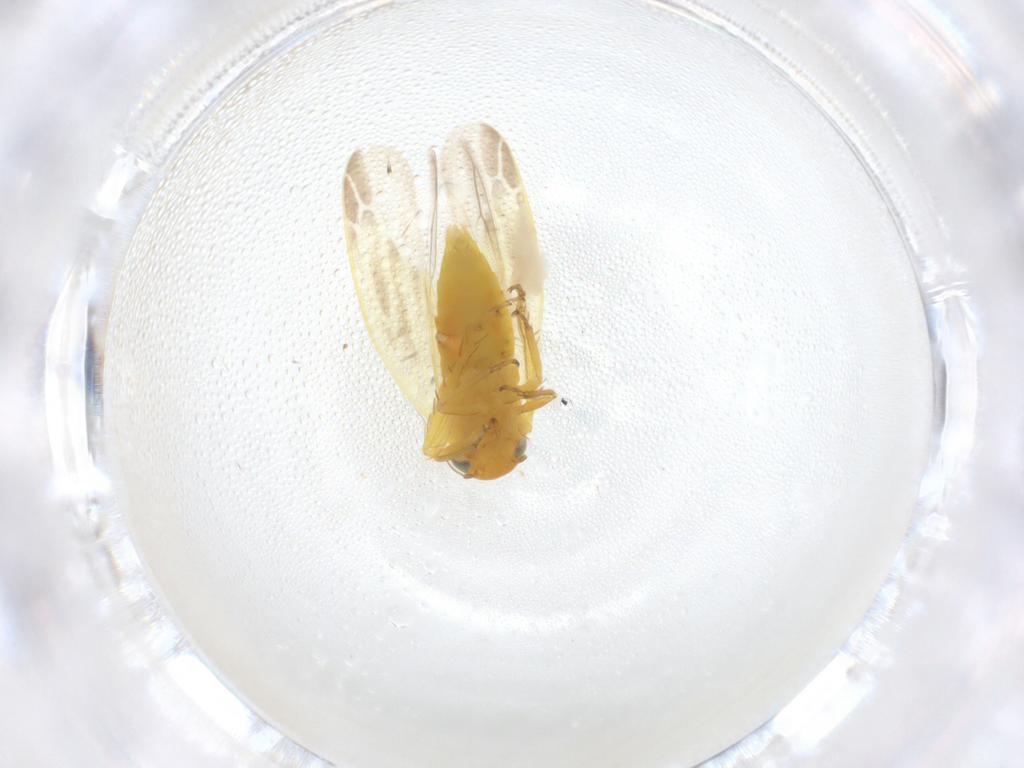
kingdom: Animalia
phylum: Arthropoda
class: Insecta
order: Hemiptera
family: Cicadellidae
